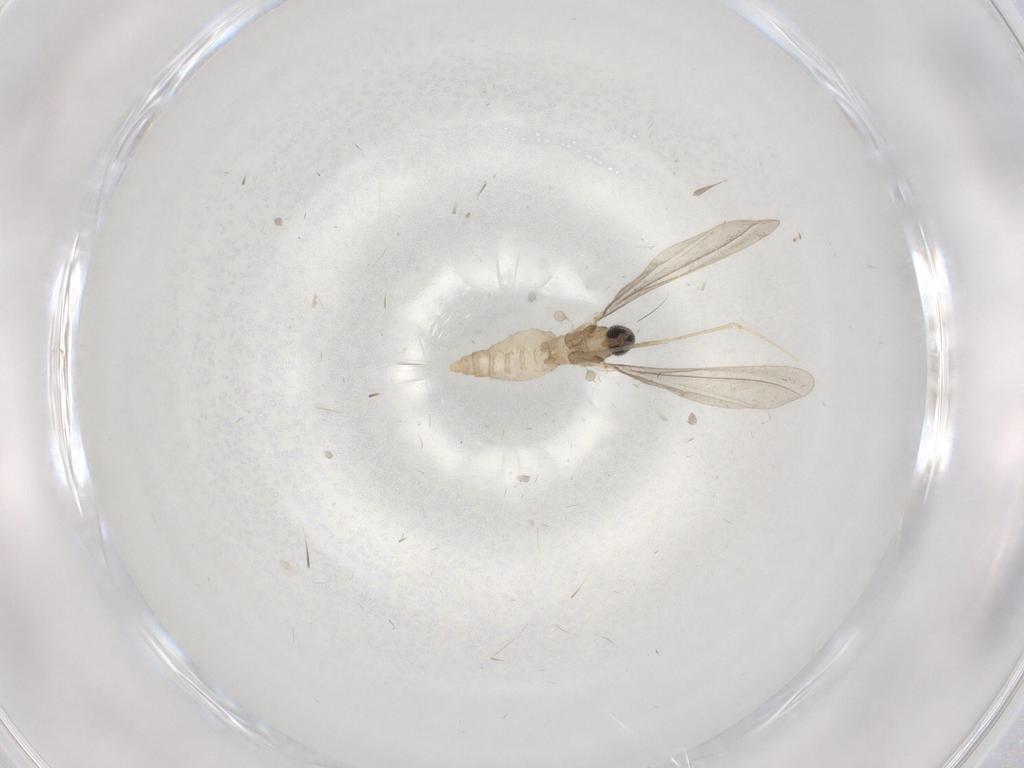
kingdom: Animalia
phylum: Arthropoda
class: Insecta
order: Diptera
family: Cecidomyiidae
